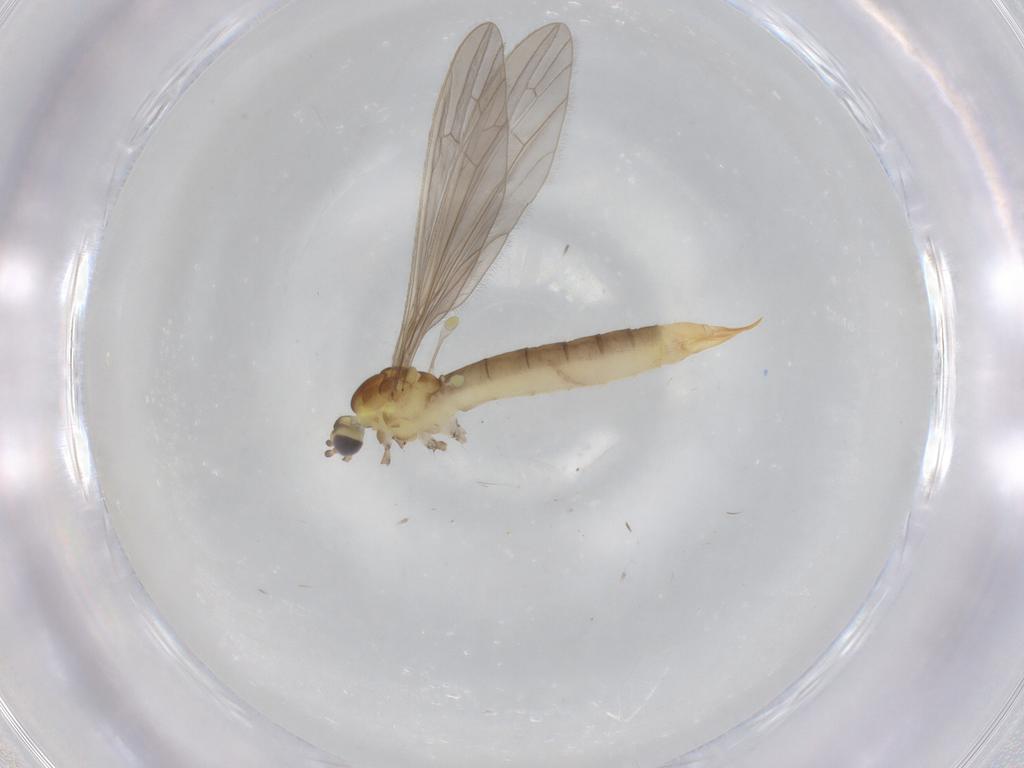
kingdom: Animalia
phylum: Arthropoda
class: Insecta
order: Diptera
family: Limoniidae
